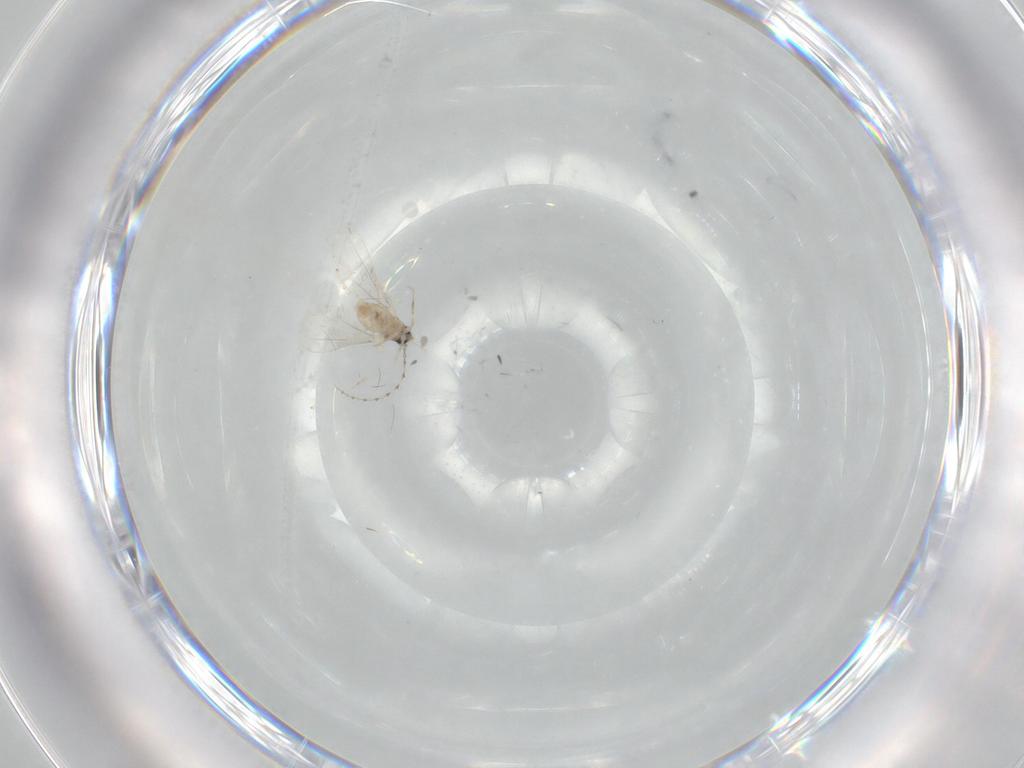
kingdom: Animalia
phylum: Arthropoda
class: Insecta
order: Diptera
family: Cecidomyiidae
